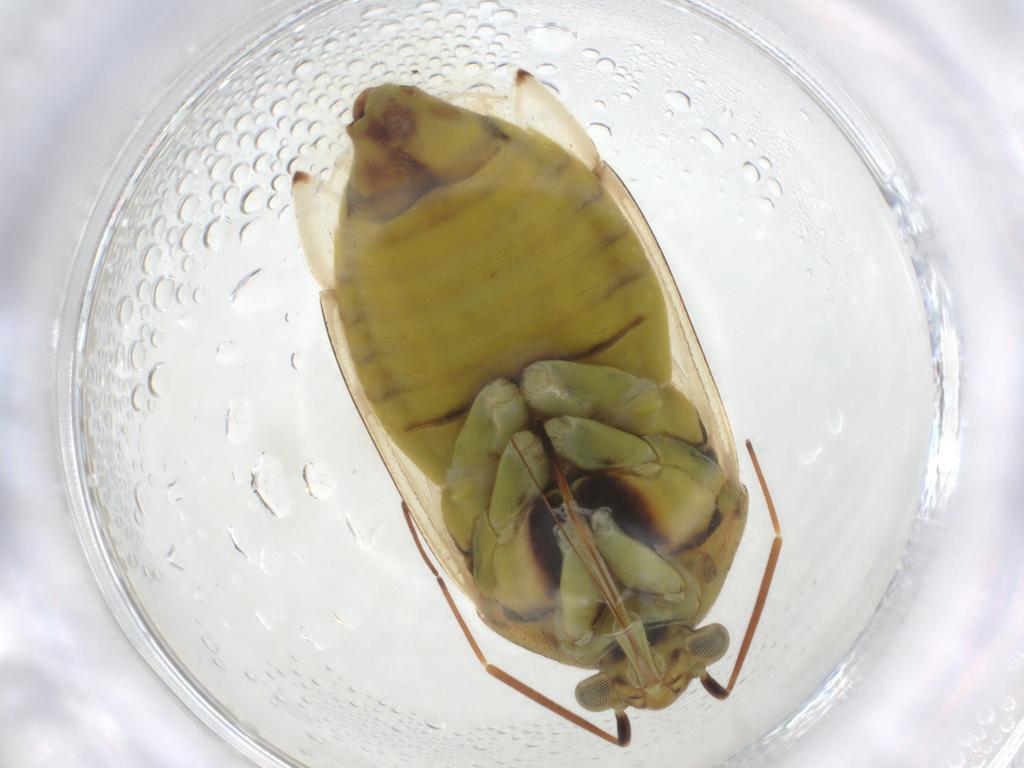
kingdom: Animalia
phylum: Arthropoda
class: Insecta
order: Hemiptera
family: Miridae
